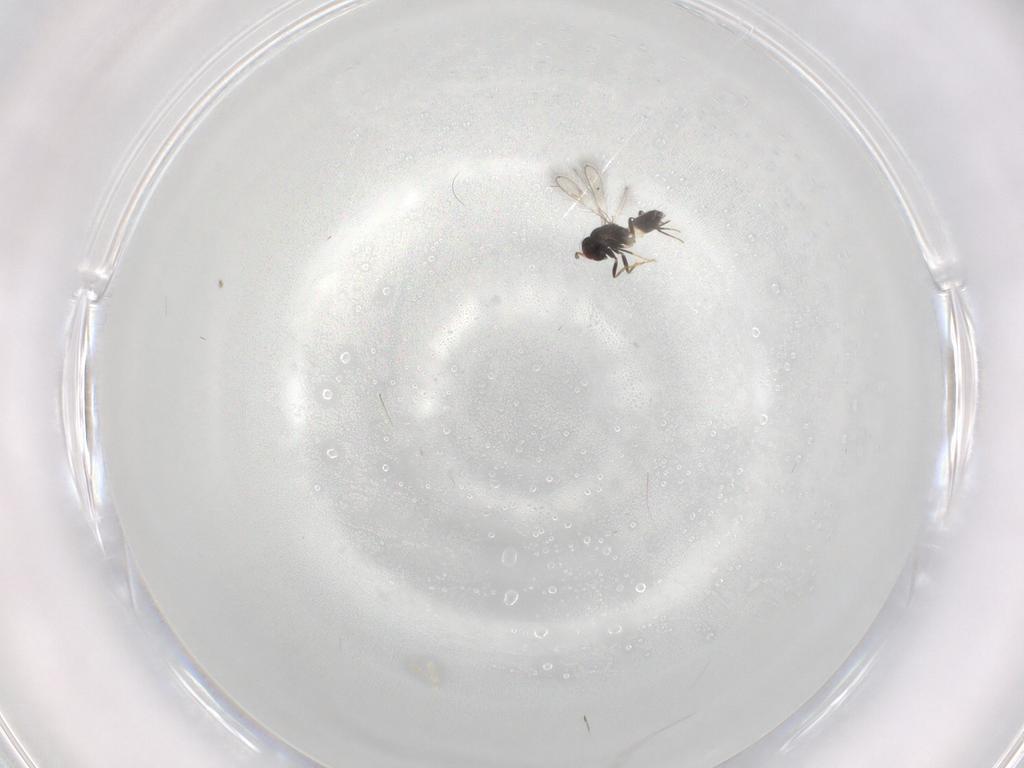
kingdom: Animalia
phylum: Arthropoda
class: Insecta
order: Hymenoptera
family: Mymaridae
